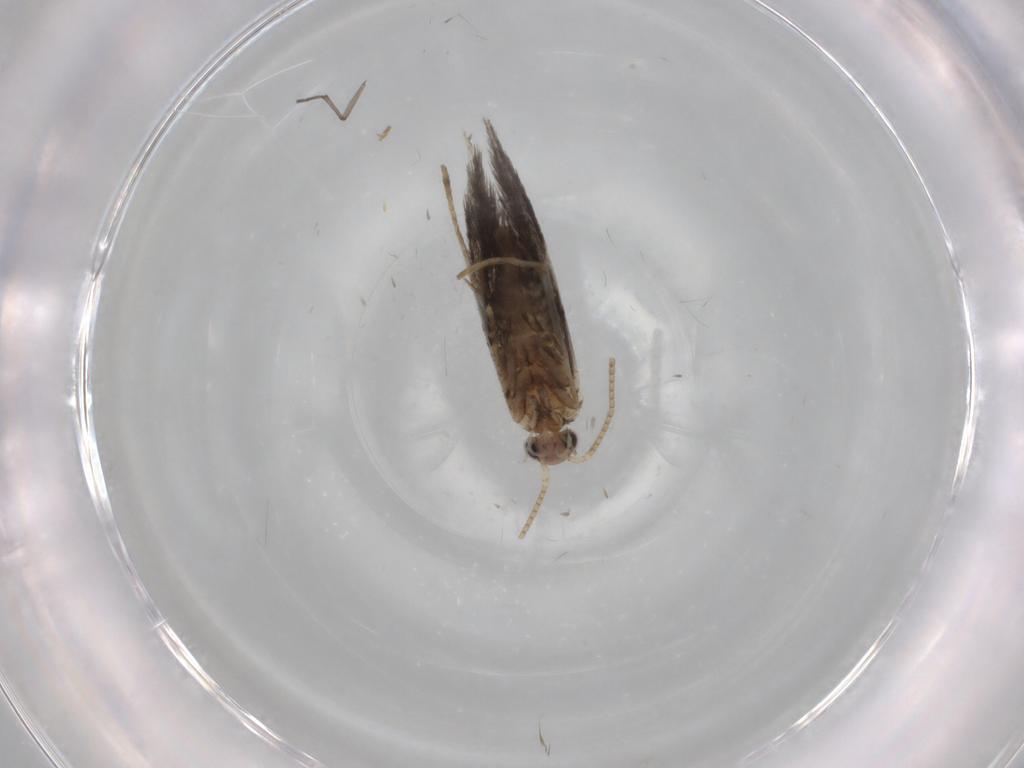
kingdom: Animalia
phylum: Arthropoda
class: Insecta
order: Lepidoptera
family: Tineidae
